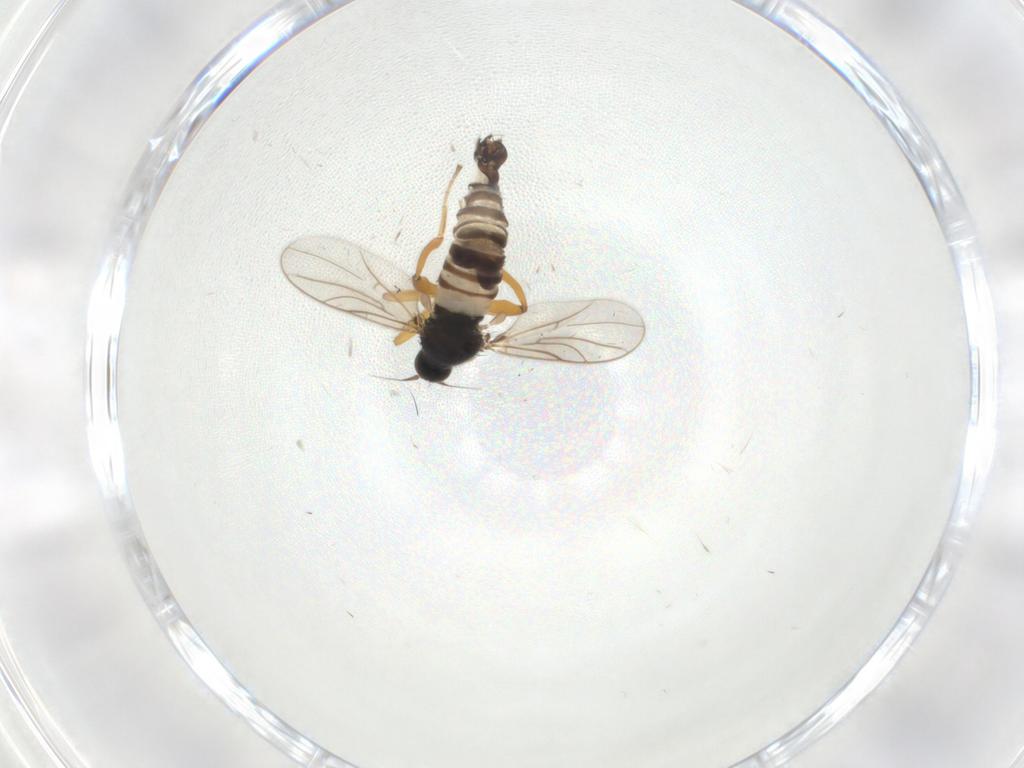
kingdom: Animalia
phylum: Arthropoda
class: Insecta
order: Diptera
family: Hybotidae
